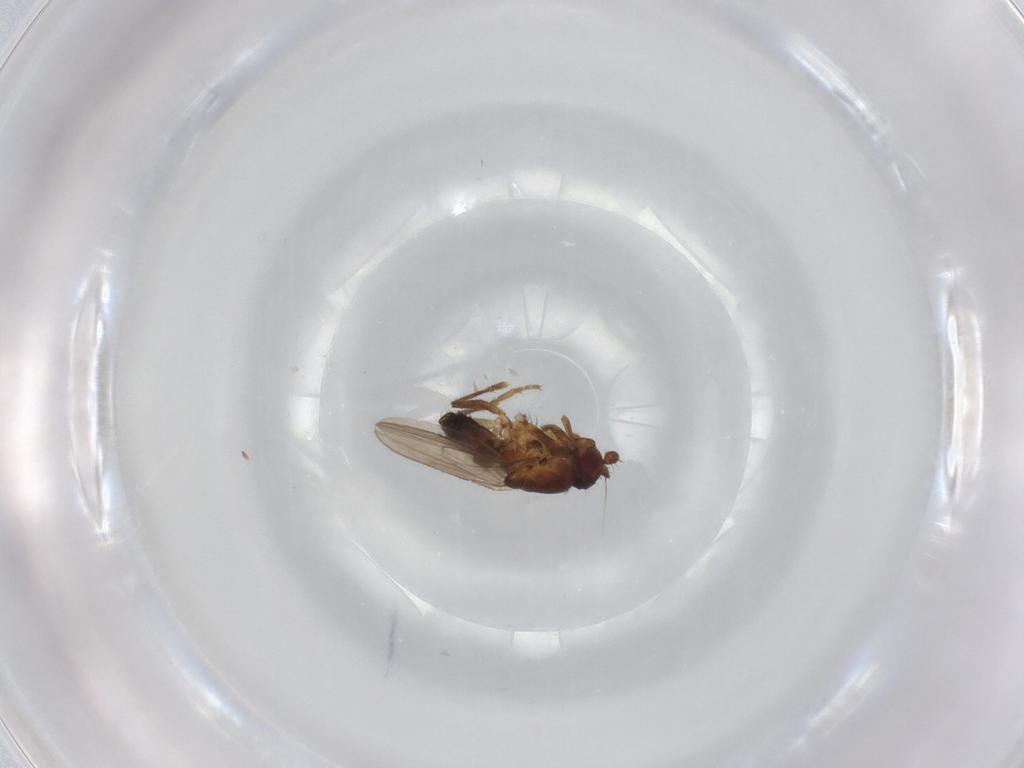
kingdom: Animalia
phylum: Arthropoda
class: Insecta
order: Diptera
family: Sphaeroceridae
